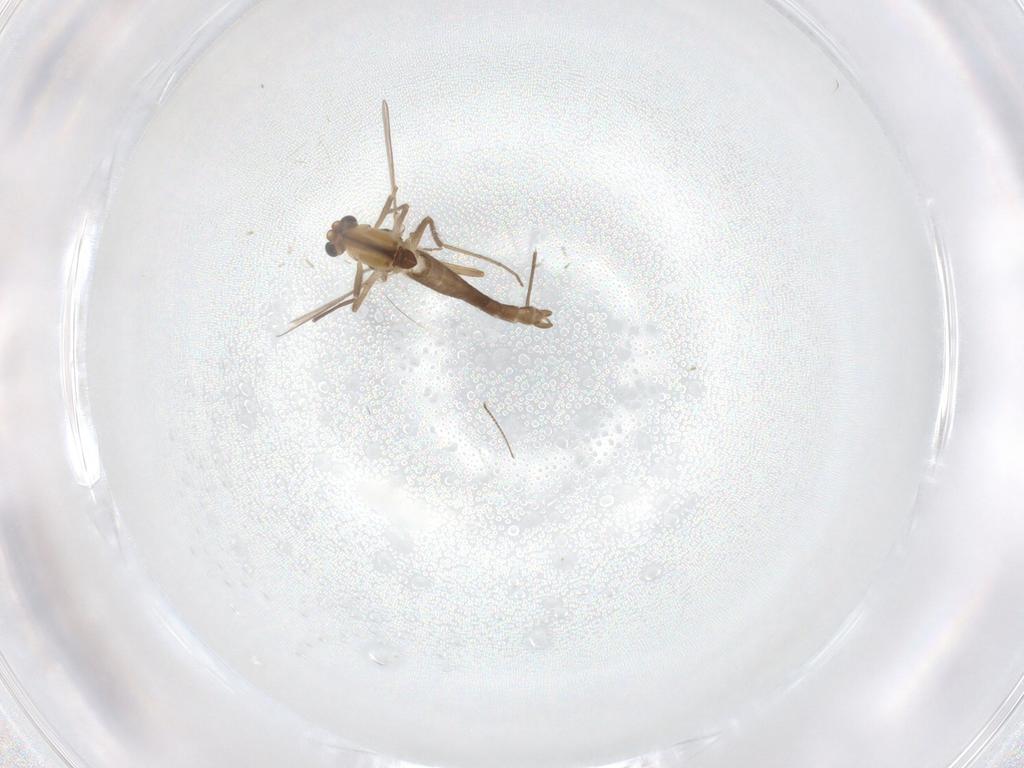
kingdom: Animalia
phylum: Arthropoda
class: Insecta
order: Diptera
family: Chironomidae
